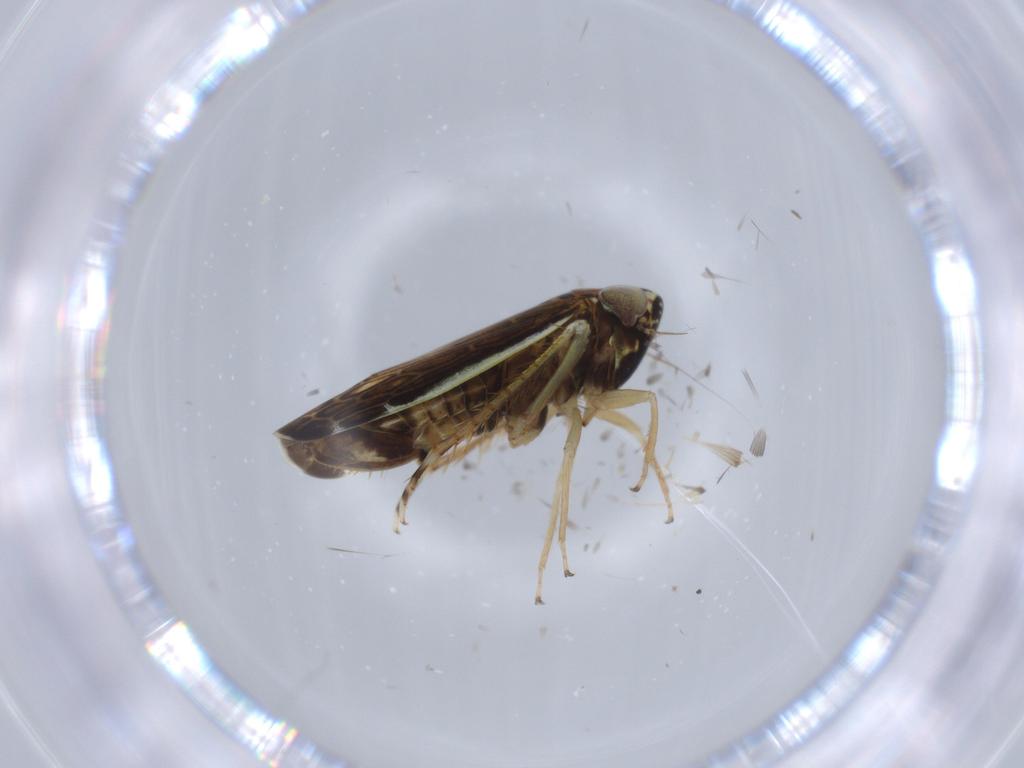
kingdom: Animalia
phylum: Arthropoda
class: Insecta
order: Hemiptera
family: Cicadellidae
